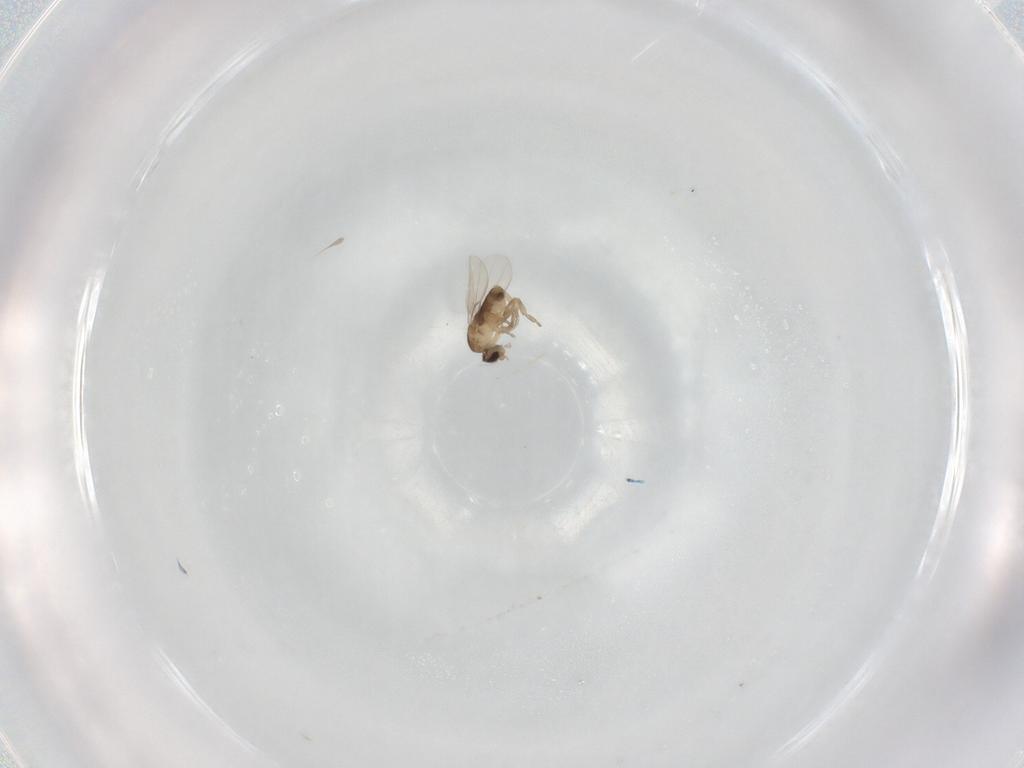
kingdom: Animalia
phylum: Arthropoda
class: Insecta
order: Diptera
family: Phoridae
